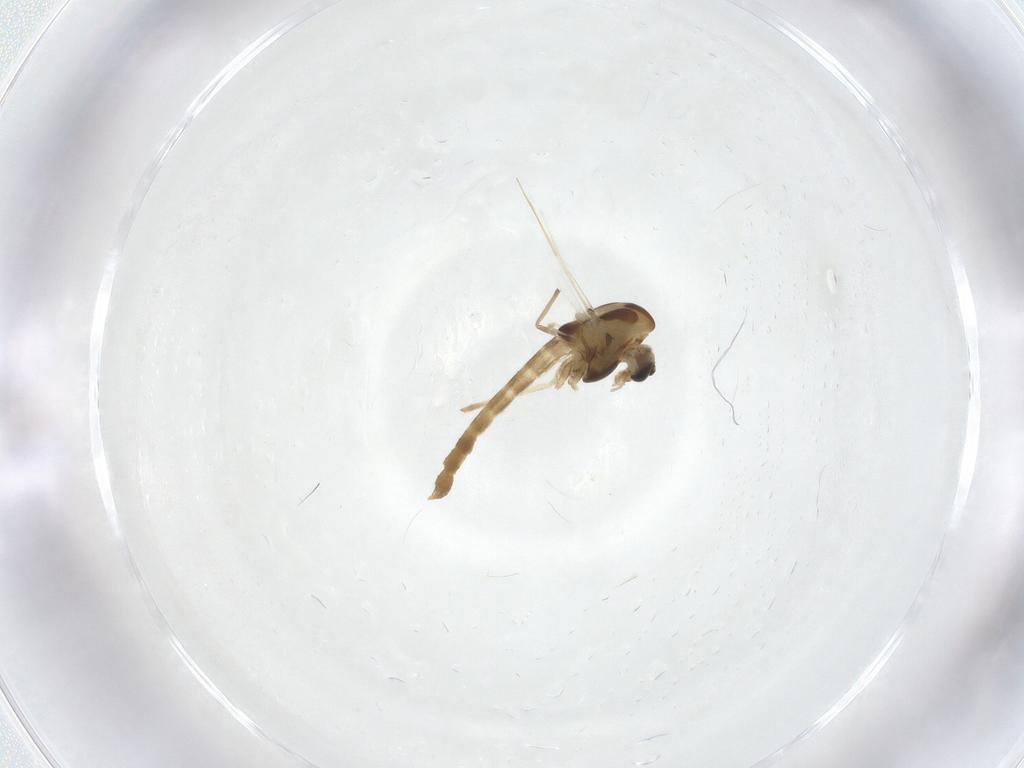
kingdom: Animalia
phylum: Arthropoda
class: Insecta
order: Diptera
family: Chironomidae
